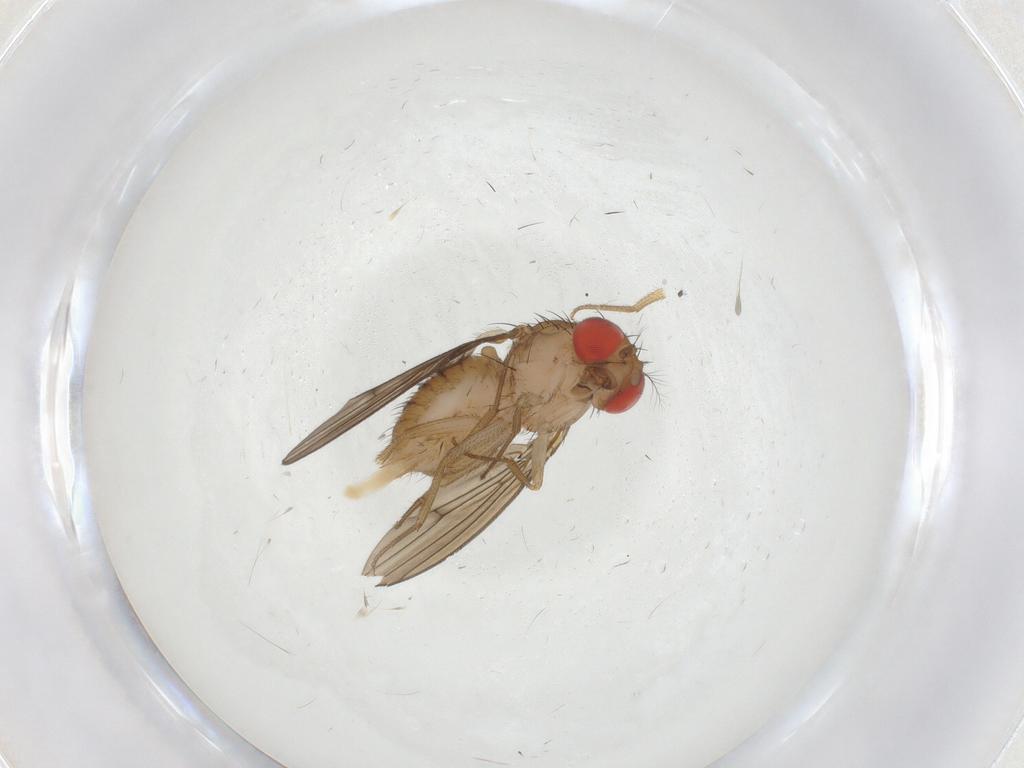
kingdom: Animalia
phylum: Arthropoda
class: Insecta
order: Diptera
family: Drosophilidae
